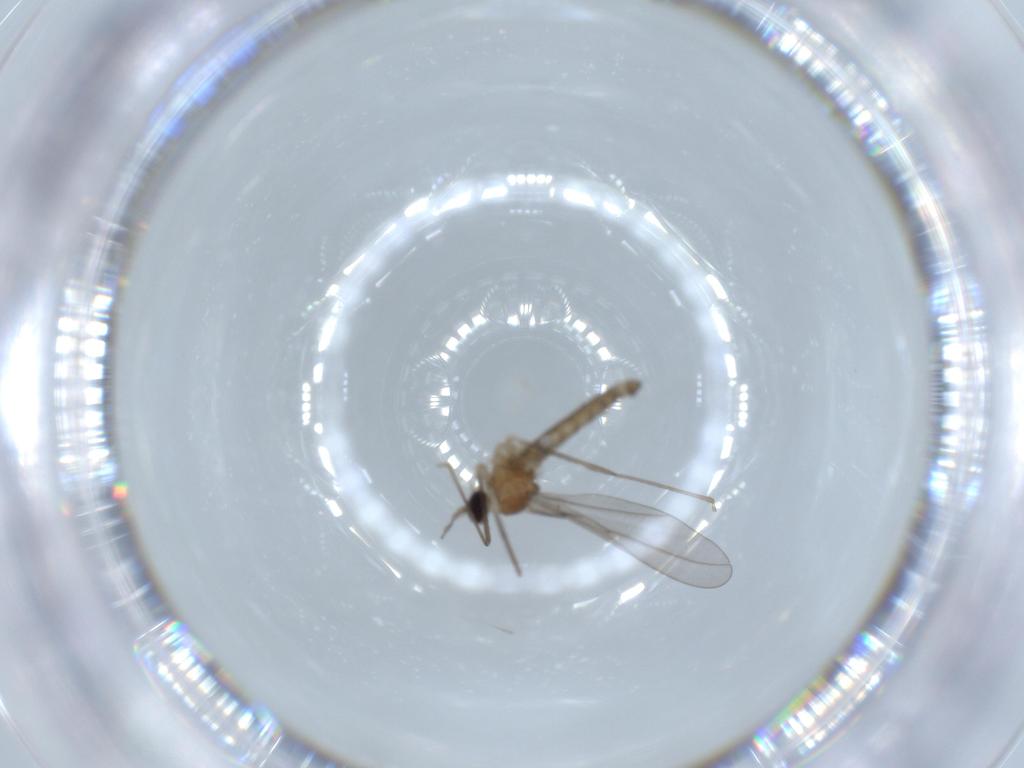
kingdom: Animalia
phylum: Arthropoda
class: Insecta
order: Diptera
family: Cecidomyiidae
